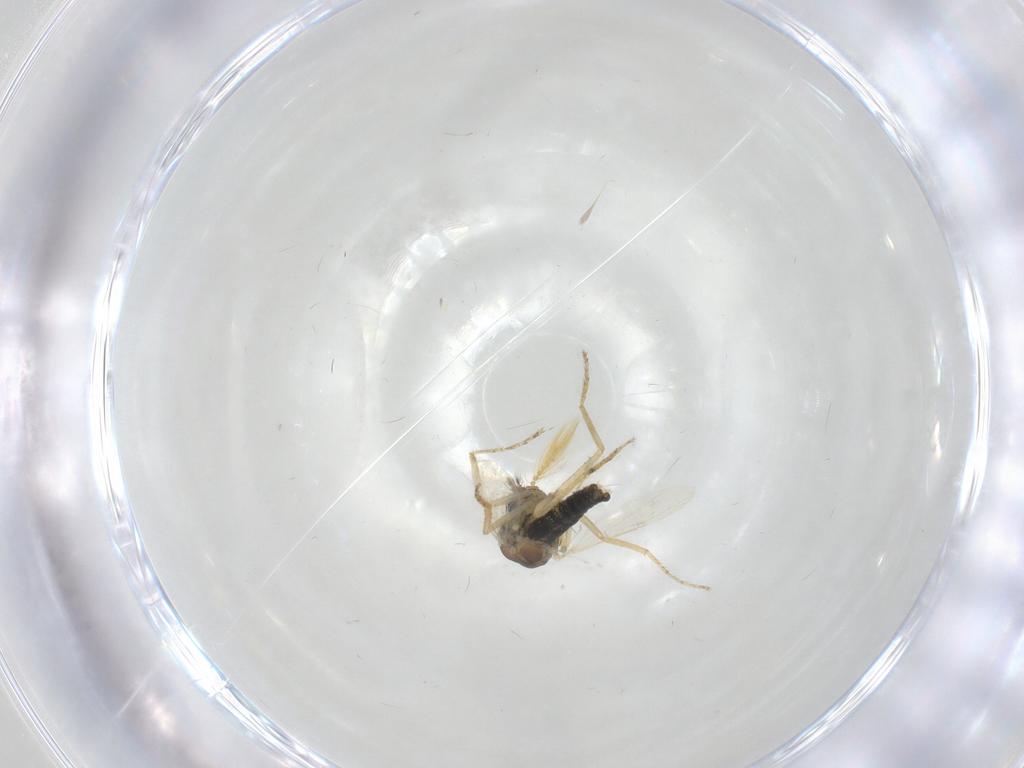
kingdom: Animalia
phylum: Arthropoda
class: Insecta
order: Diptera
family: Ceratopogonidae
